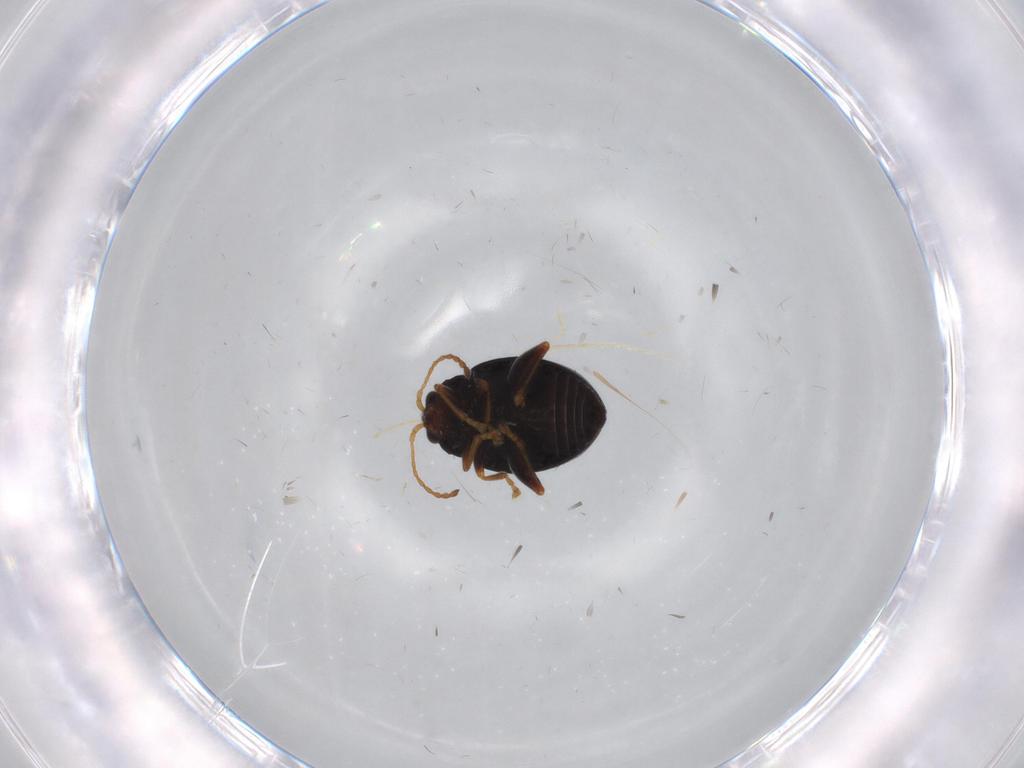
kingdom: Animalia
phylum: Arthropoda
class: Insecta
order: Coleoptera
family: Chrysomelidae
